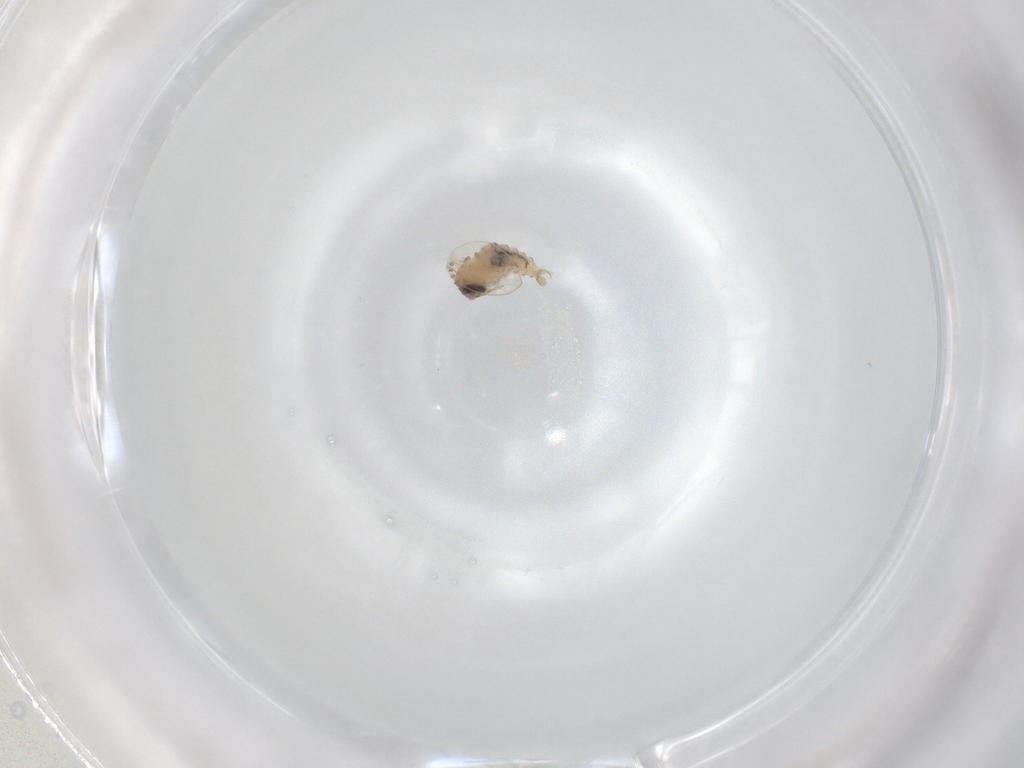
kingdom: Animalia
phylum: Arthropoda
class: Insecta
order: Diptera
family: Psychodidae
